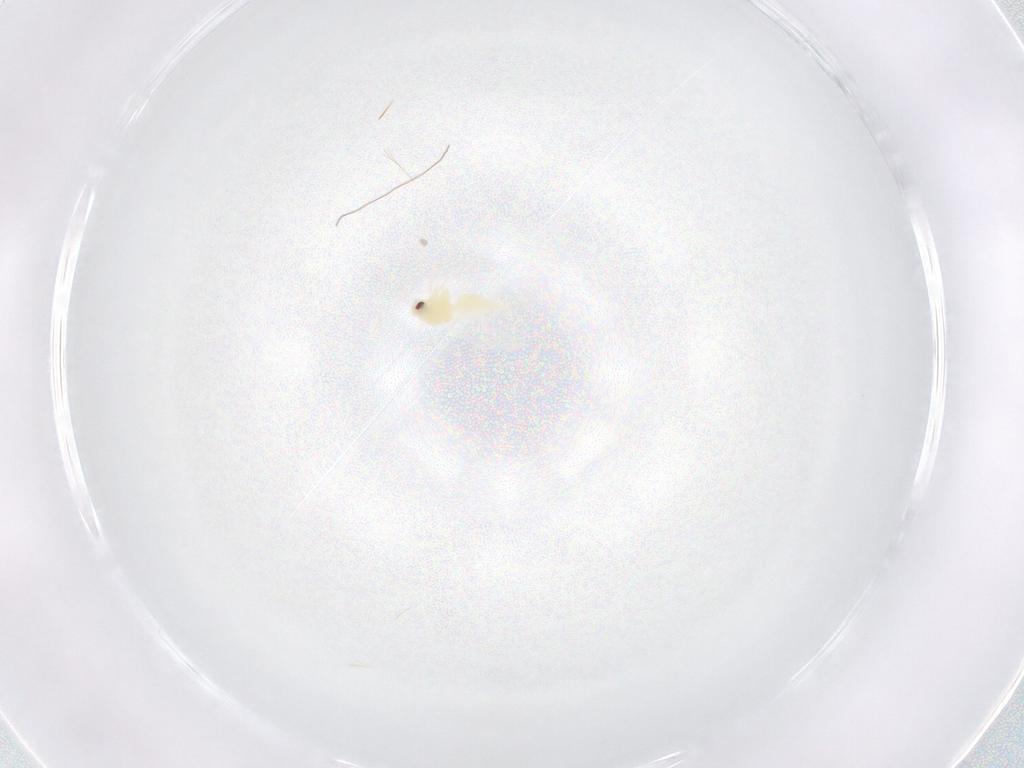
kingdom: Animalia
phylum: Arthropoda
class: Insecta
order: Hemiptera
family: Aleyrodidae
